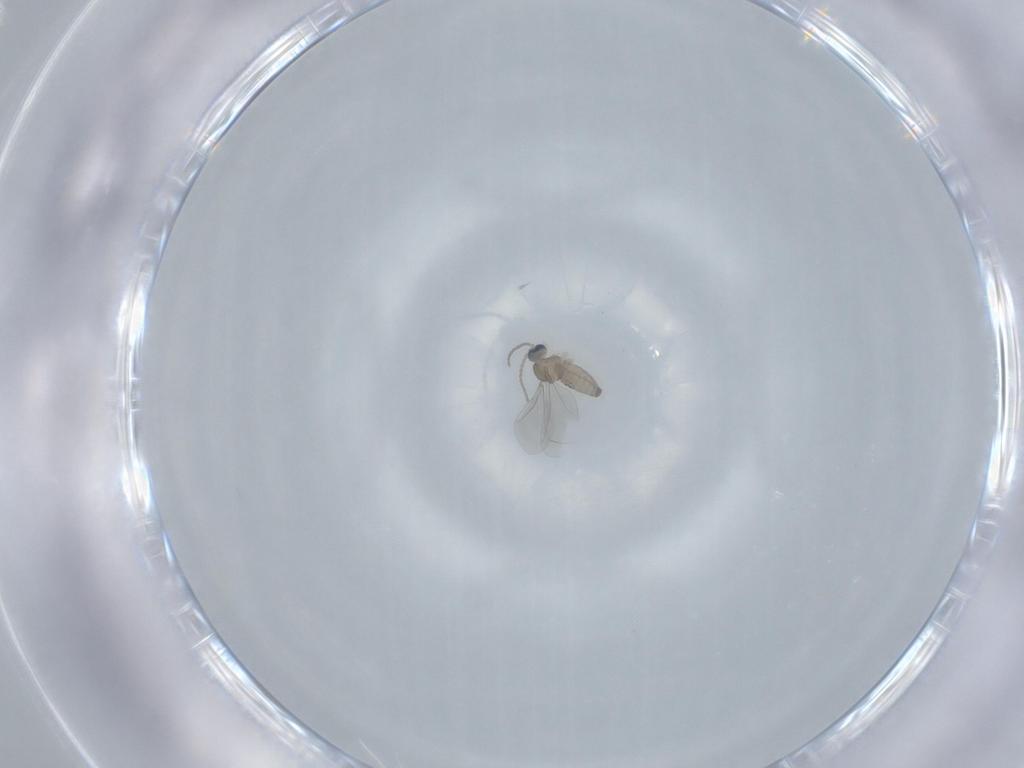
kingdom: Animalia
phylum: Arthropoda
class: Insecta
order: Diptera
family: Cecidomyiidae
